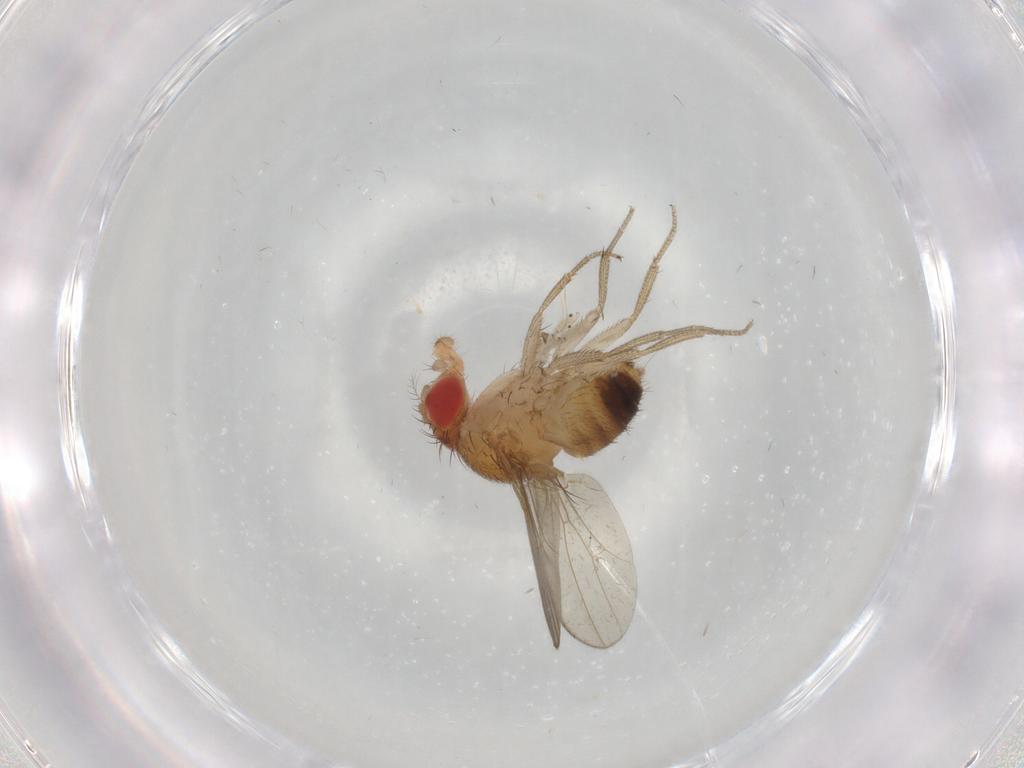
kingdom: Animalia
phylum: Arthropoda
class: Insecta
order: Diptera
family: Drosophilidae
